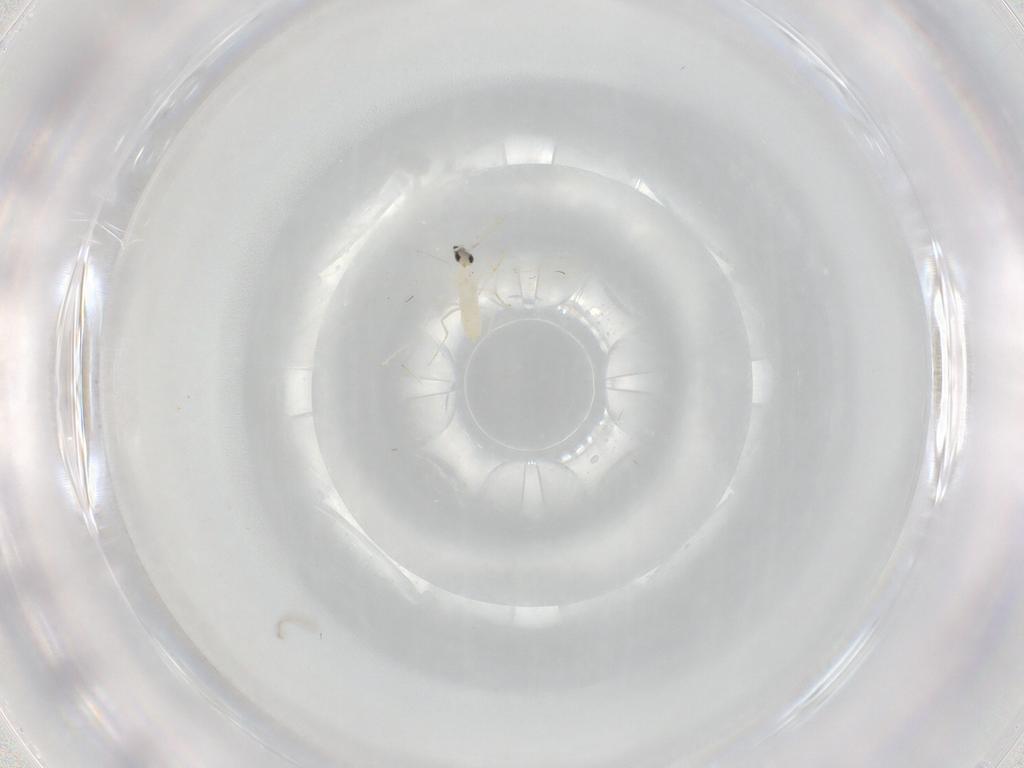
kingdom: Animalia
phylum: Arthropoda
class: Insecta
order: Diptera
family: Cecidomyiidae
